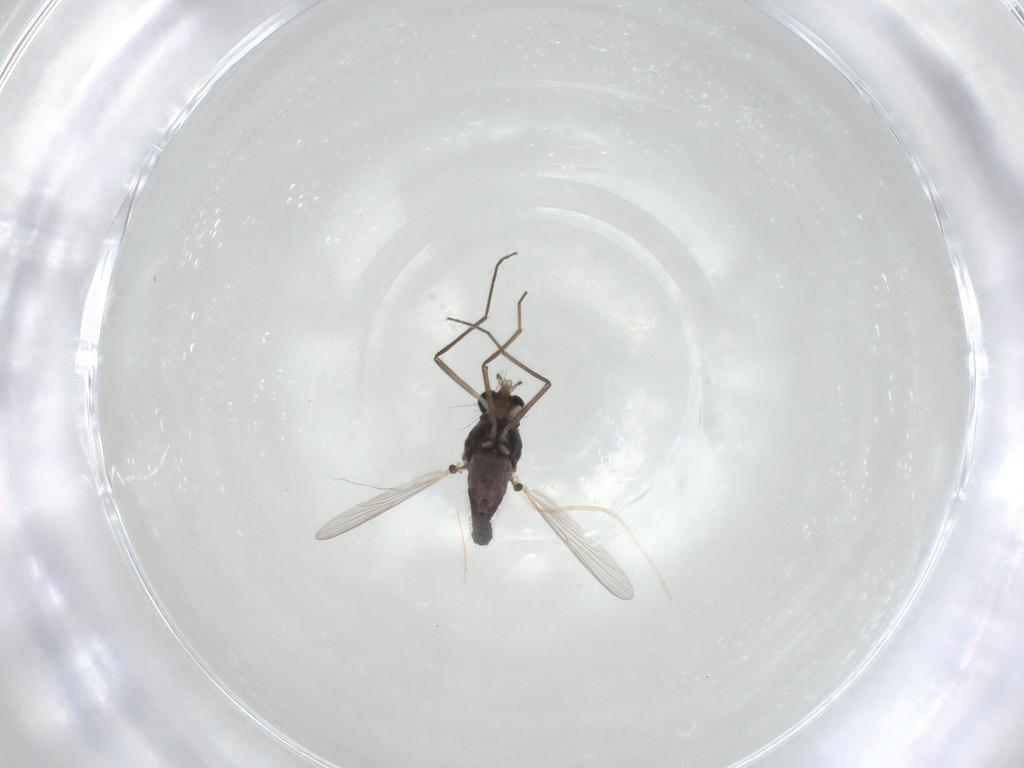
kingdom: Animalia
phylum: Arthropoda
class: Insecta
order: Diptera
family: Chironomidae
